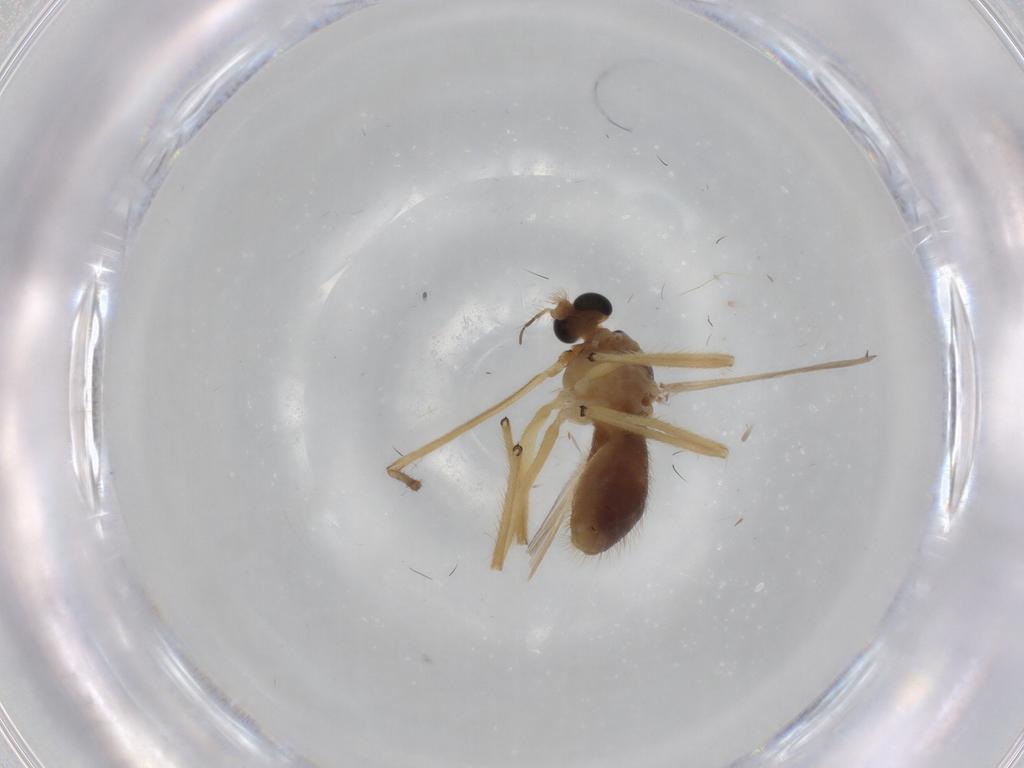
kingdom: Animalia
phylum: Arthropoda
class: Insecta
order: Diptera
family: Chironomidae
